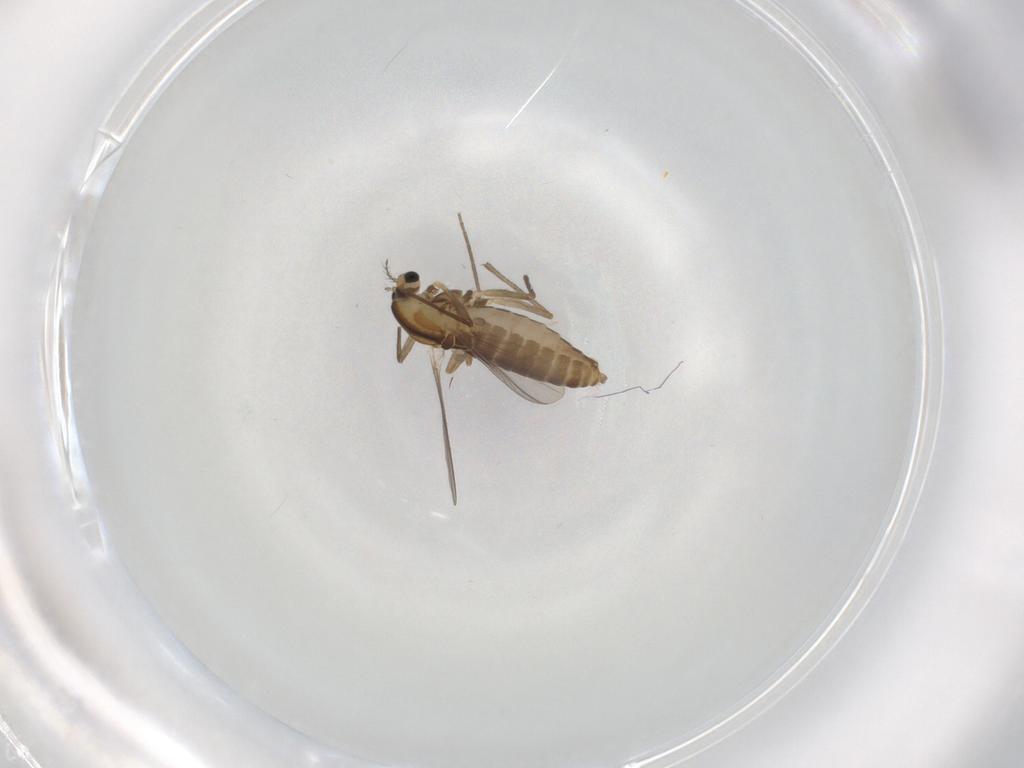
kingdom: Animalia
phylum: Arthropoda
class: Insecta
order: Diptera
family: Chironomidae
